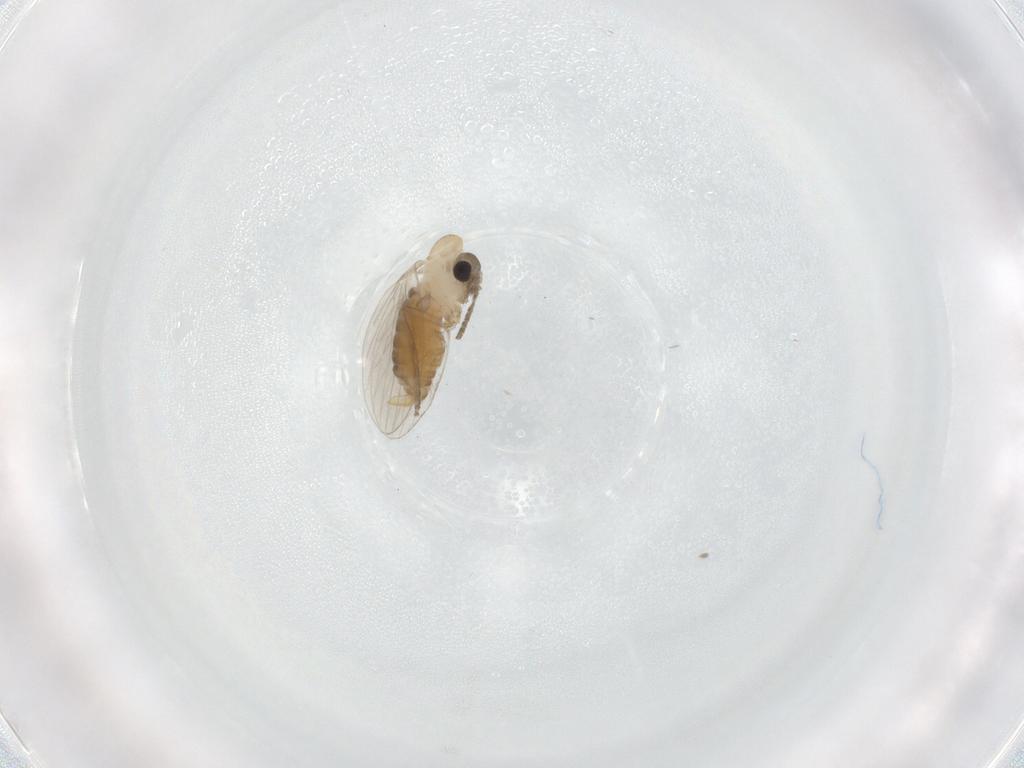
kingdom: Animalia
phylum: Arthropoda
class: Insecta
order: Diptera
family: Psychodidae
